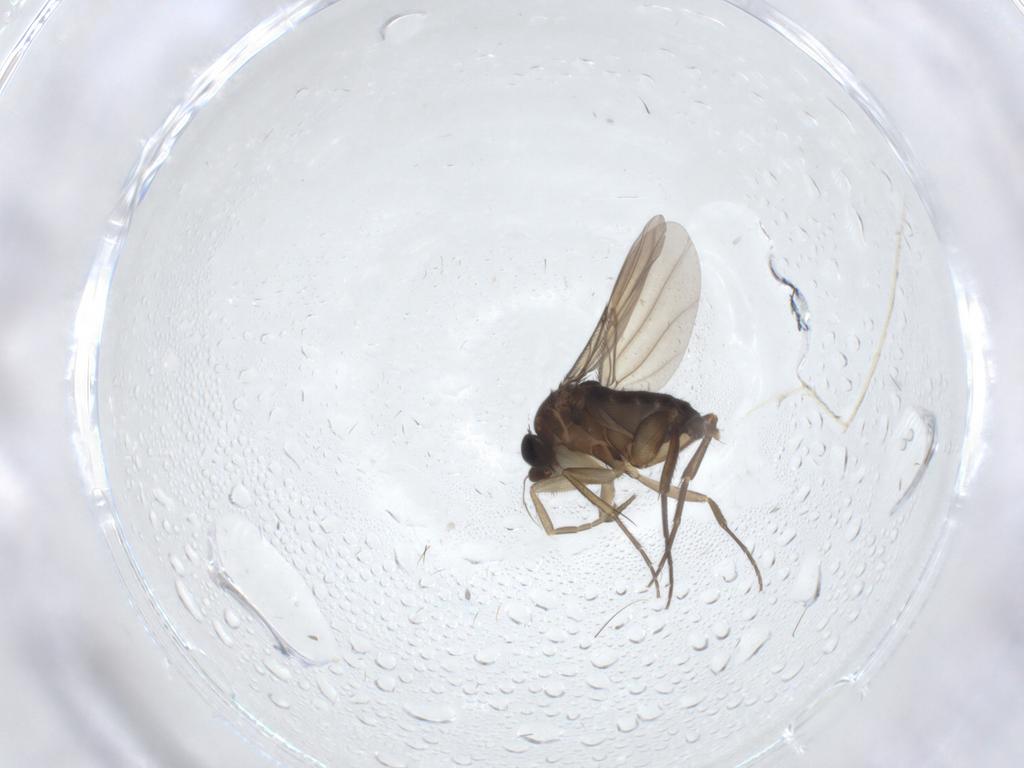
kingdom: Animalia
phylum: Arthropoda
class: Insecta
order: Diptera
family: Phoridae
